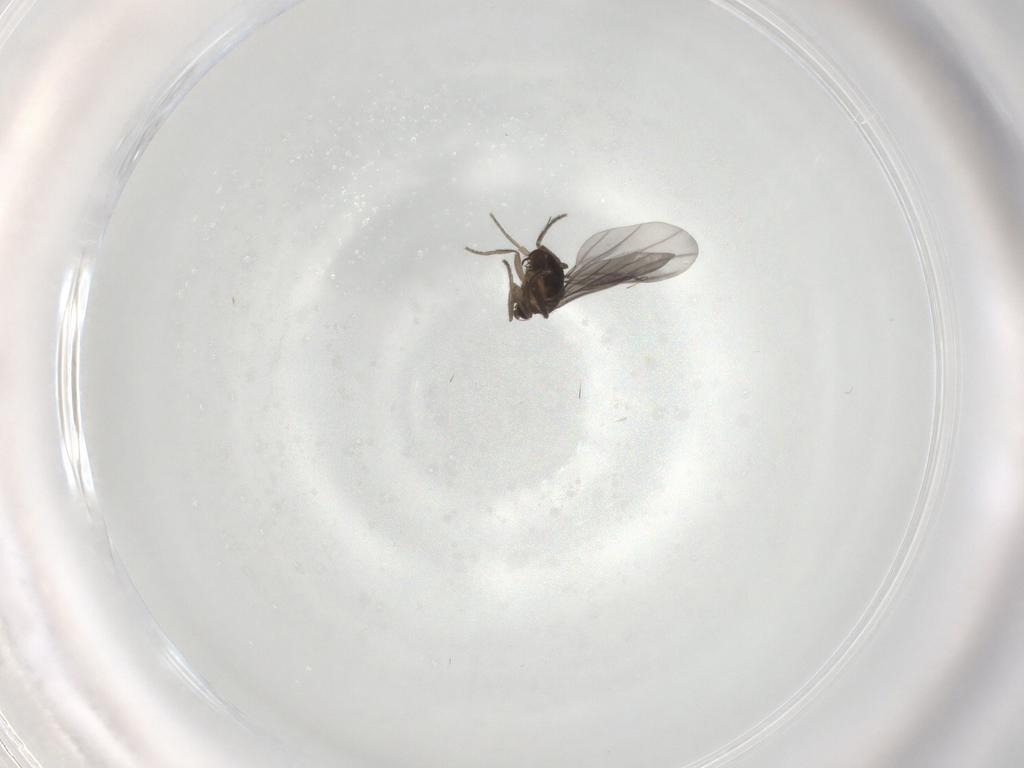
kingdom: Animalia
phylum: Arthropoda
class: Insecta
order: Diptera
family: Phoridae
